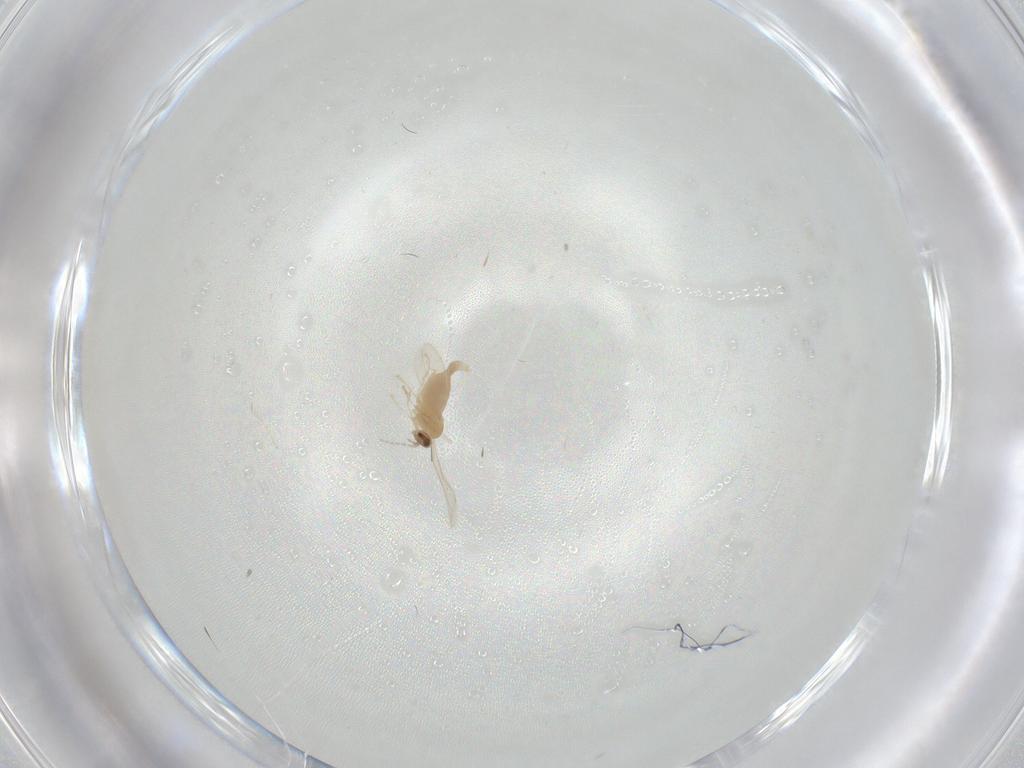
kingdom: Animalia
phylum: Arthropoda
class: Insecta
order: Diptera
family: Cecidomyiidae
